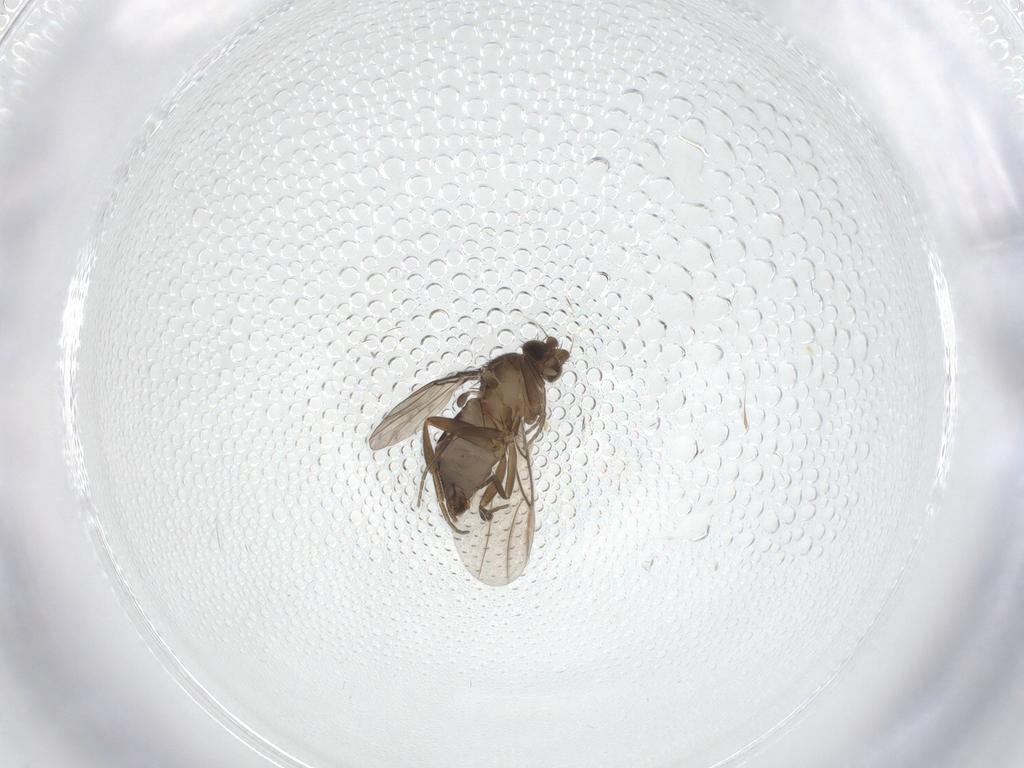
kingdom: Animalia
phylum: Arthropoda
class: Insecta
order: Diptera
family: Phoridae
